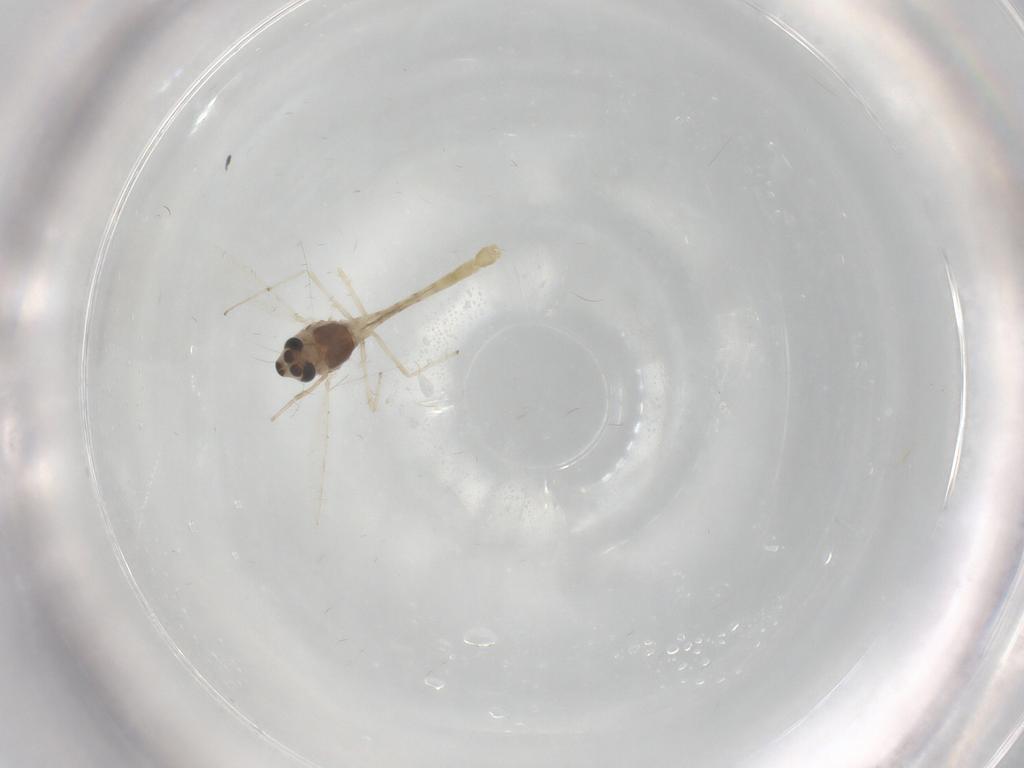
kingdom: Animalia
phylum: Arthropoda
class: Insecta
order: Diptera
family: Chironomidae
